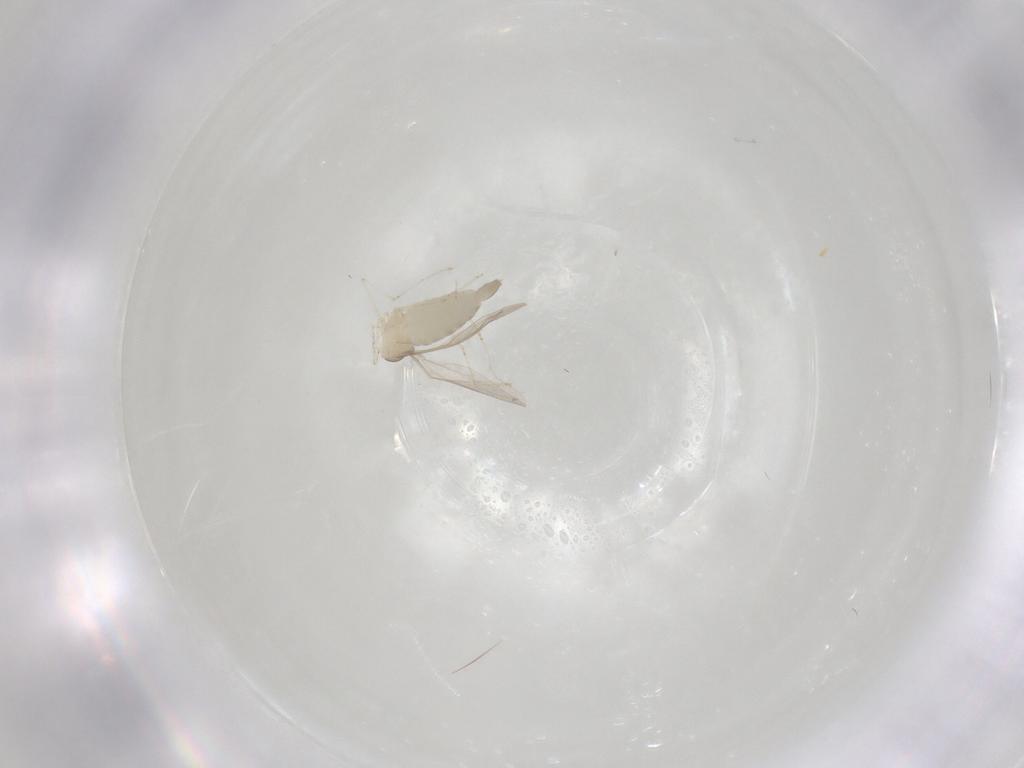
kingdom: Animalia
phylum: Arthropoda
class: Insecta
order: Diptera
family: Cecidomyiidae
